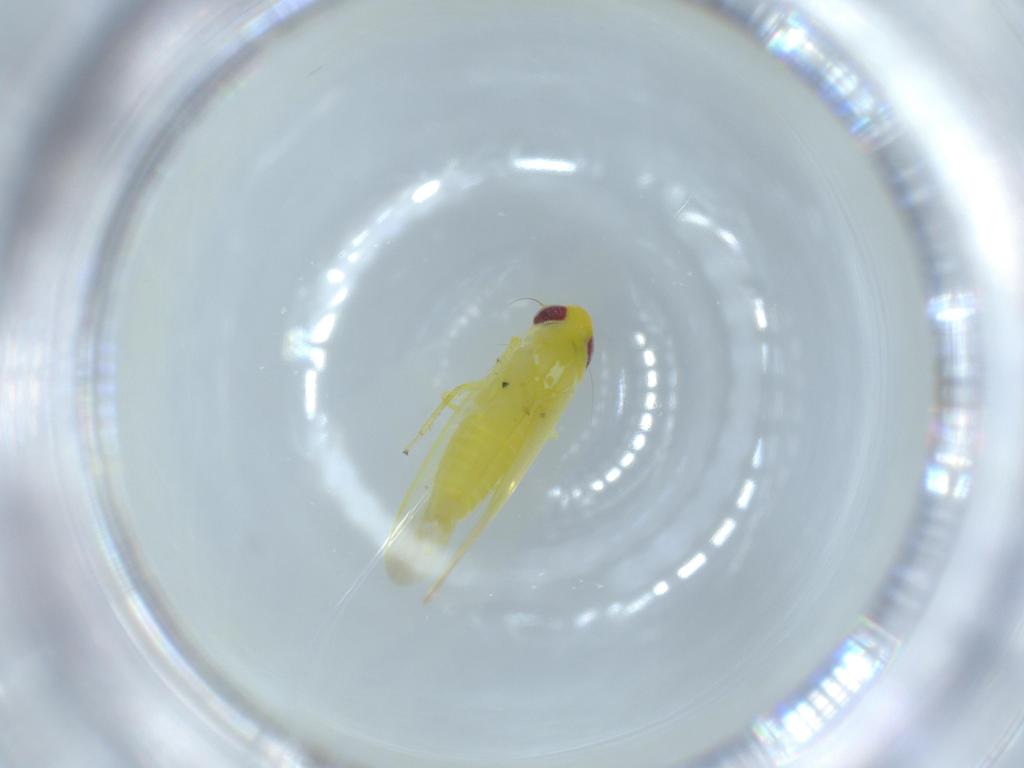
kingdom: Animalia
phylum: Arthropoda
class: Insecta
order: Hemiptera
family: Cicadellidae
